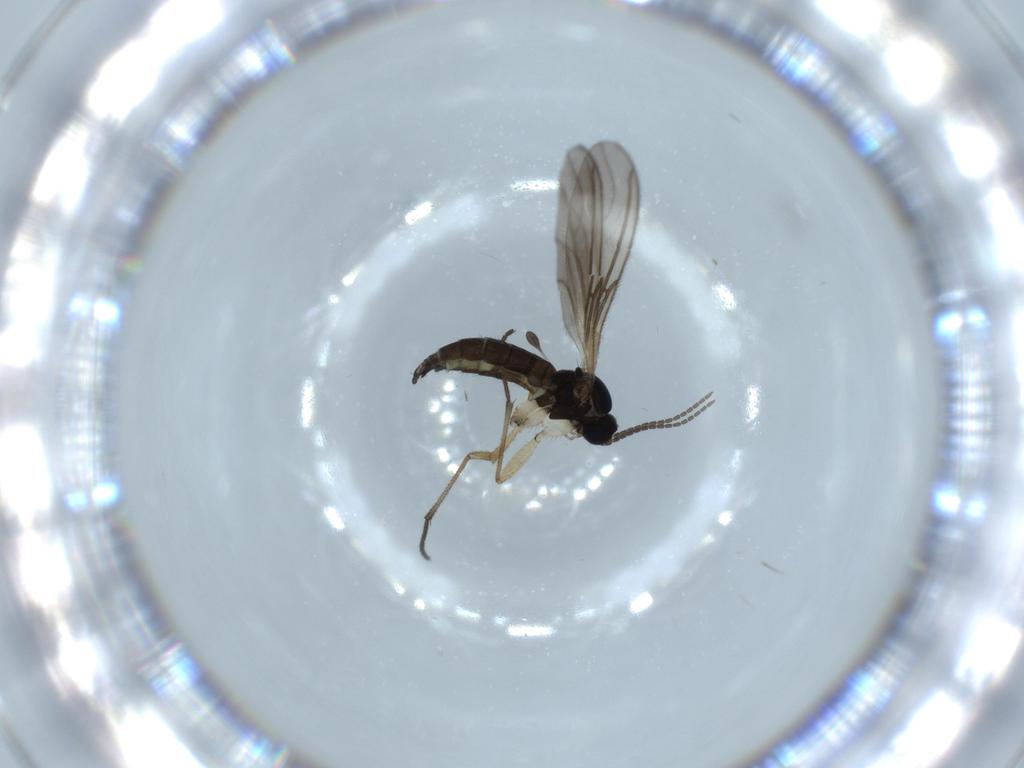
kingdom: Animalia
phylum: Arthropoda
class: Insecta
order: Diptera
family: Sciaridae
